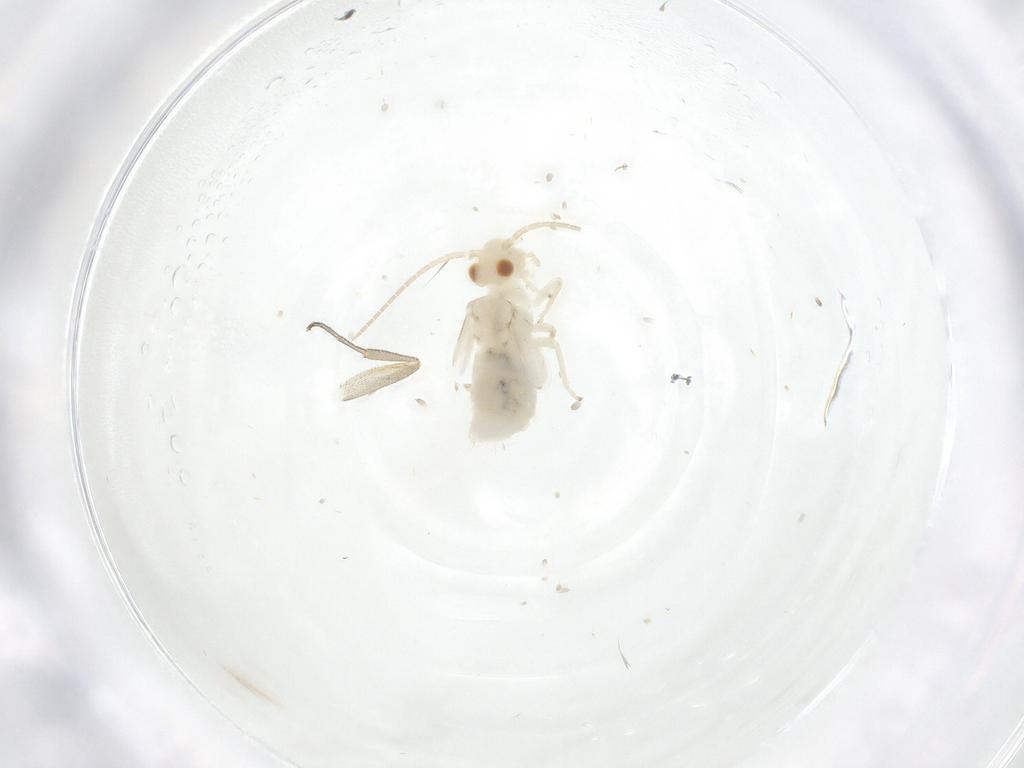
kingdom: Animalia
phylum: Arthropoda
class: Insecta
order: Psocodea
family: Caeciliusidae
